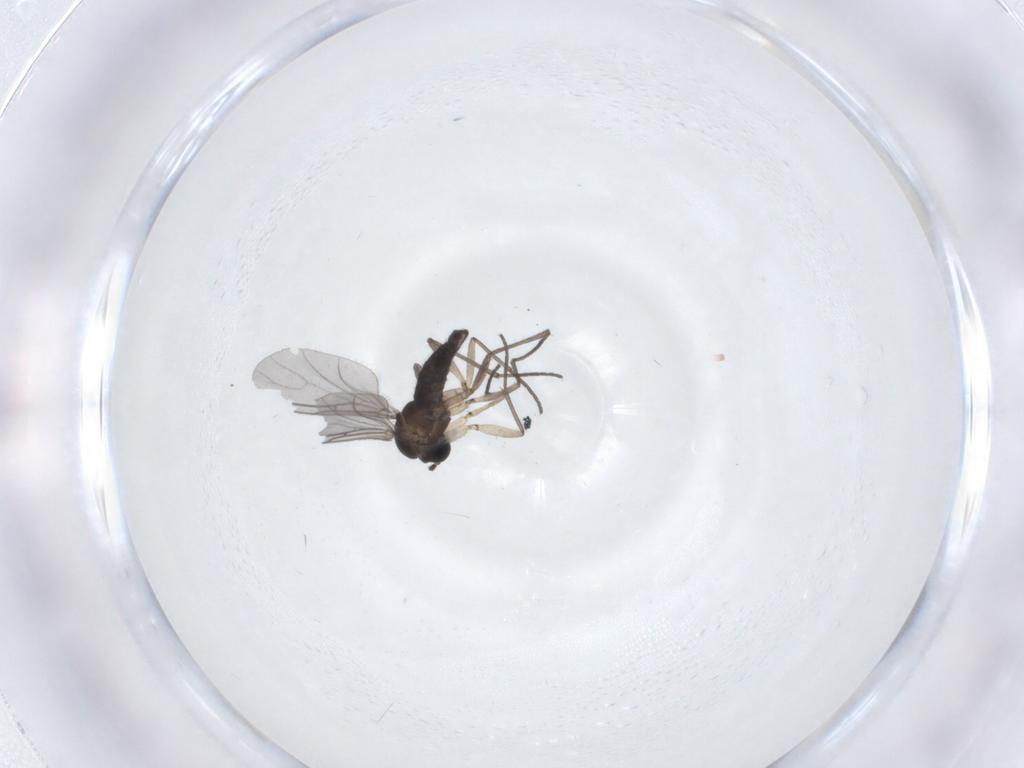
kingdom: Animalia
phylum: Arthropoda
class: Insecta
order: Diptera
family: Sciaridae
